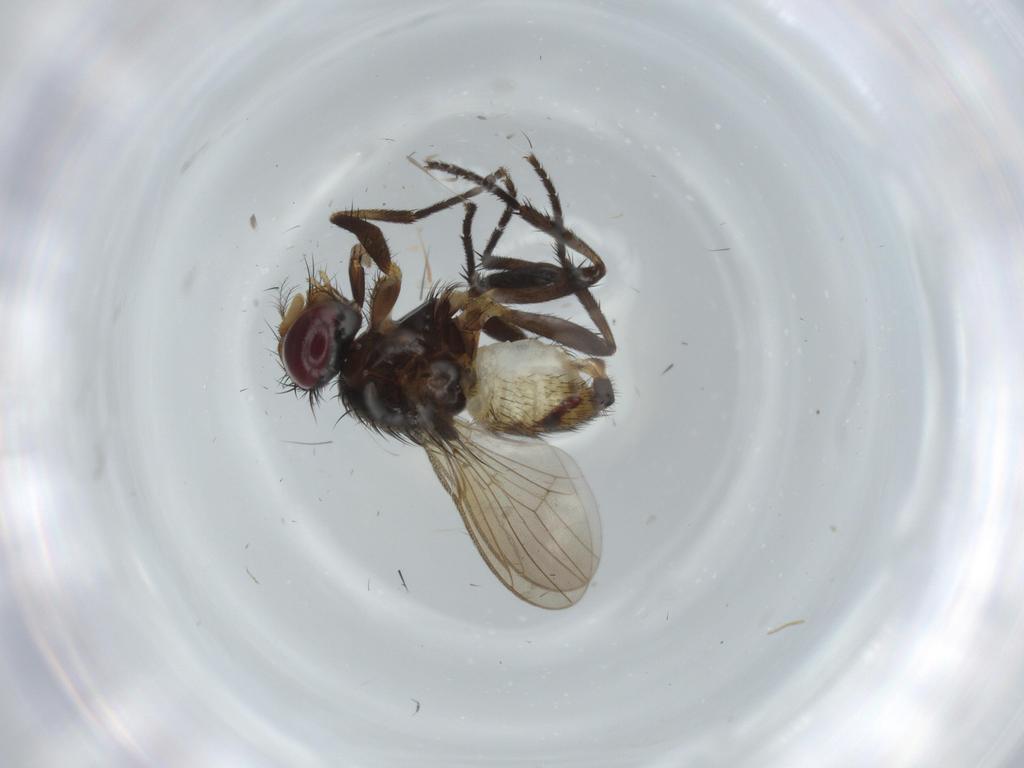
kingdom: Animalia
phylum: Arthropoda
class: Insecta
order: Diptera
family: Anthomyiidae
